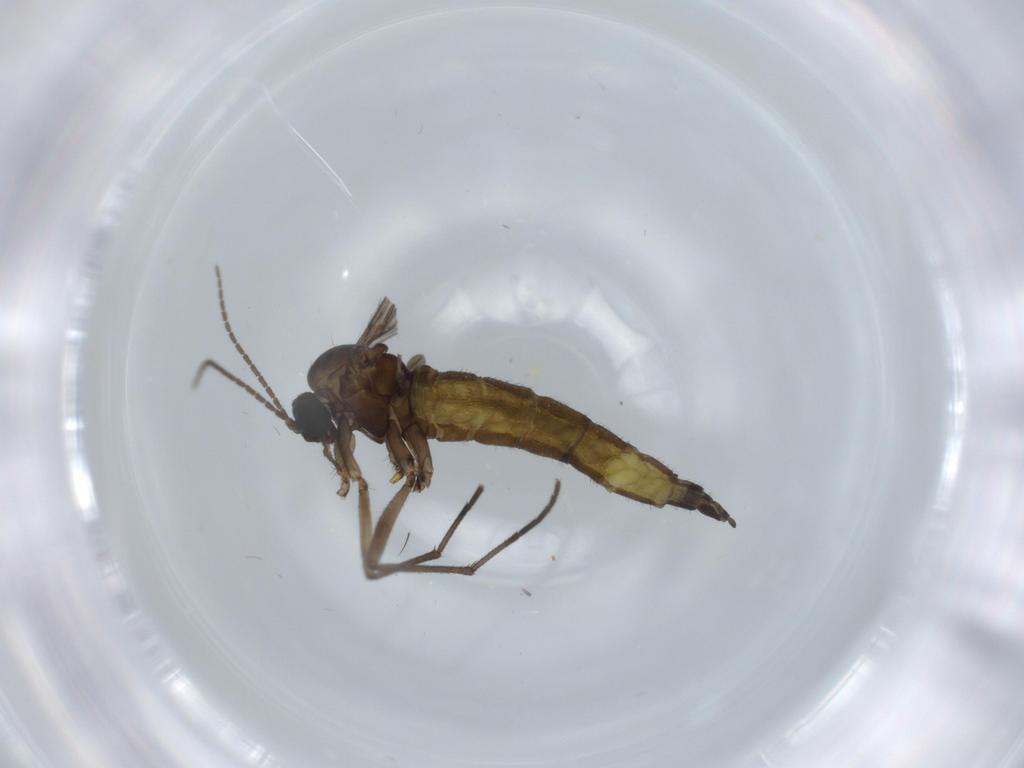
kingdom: Animalia
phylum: Arthropoda
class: Insecta
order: Diptera
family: Sciaridae
